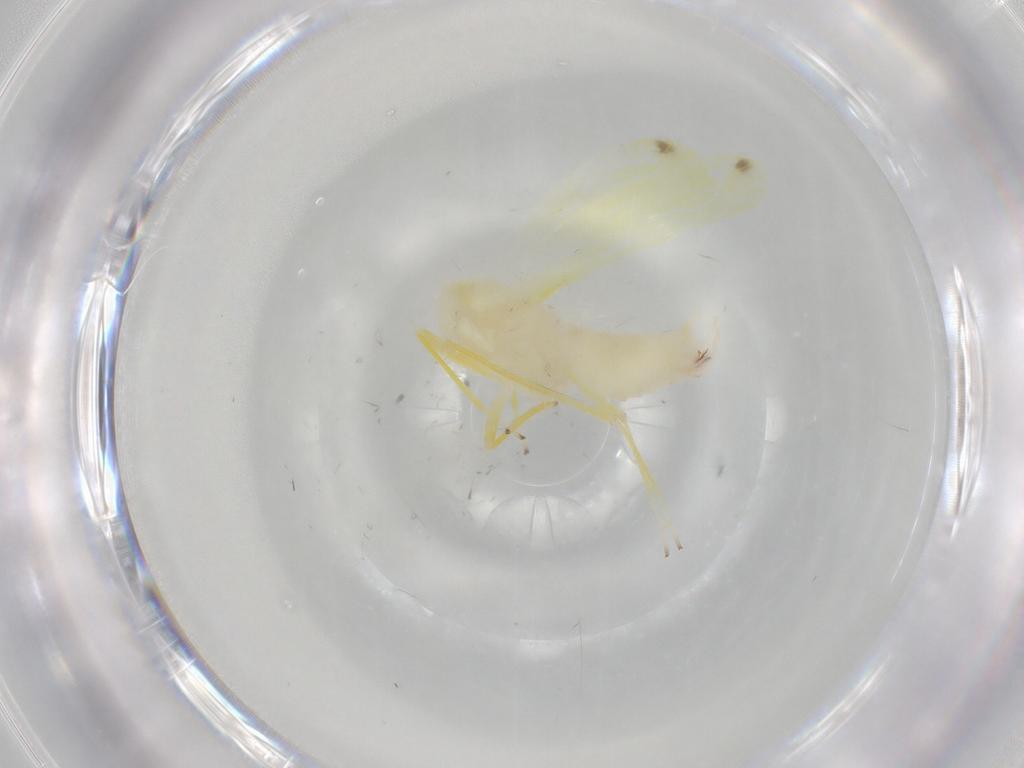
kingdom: Animalia
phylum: Arthropoda
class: Insecta
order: Hemiptera
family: Cicadellidae
